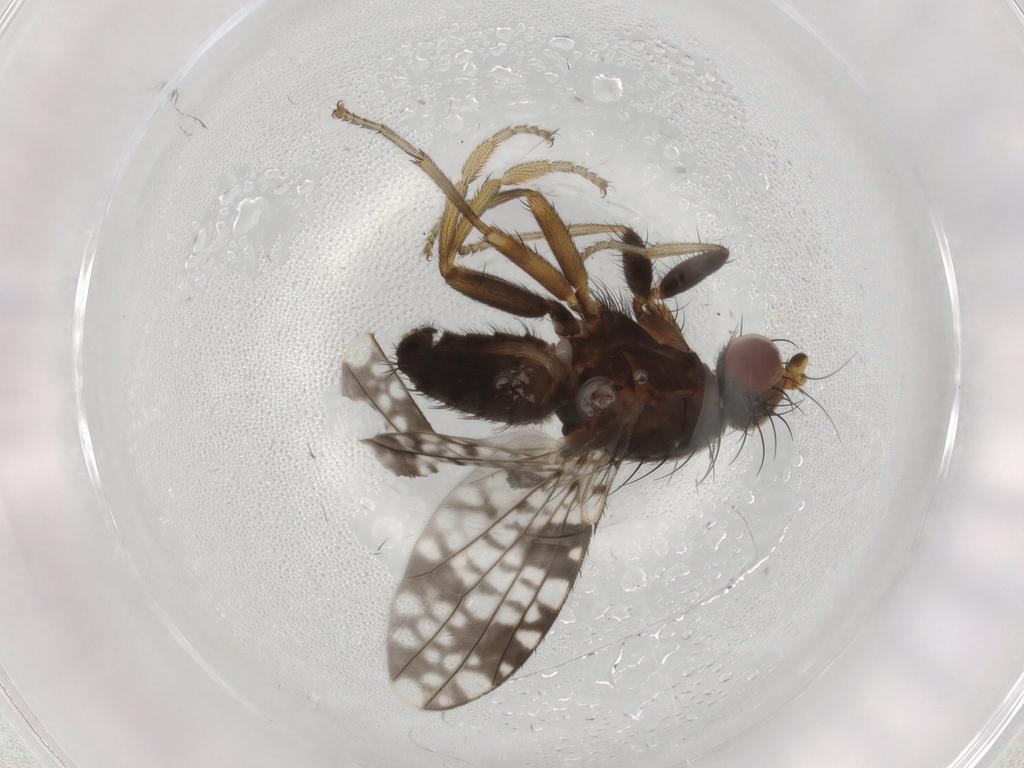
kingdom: Animalia
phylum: Arthropoda
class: Insecta
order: Diptera
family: Tephritidae
